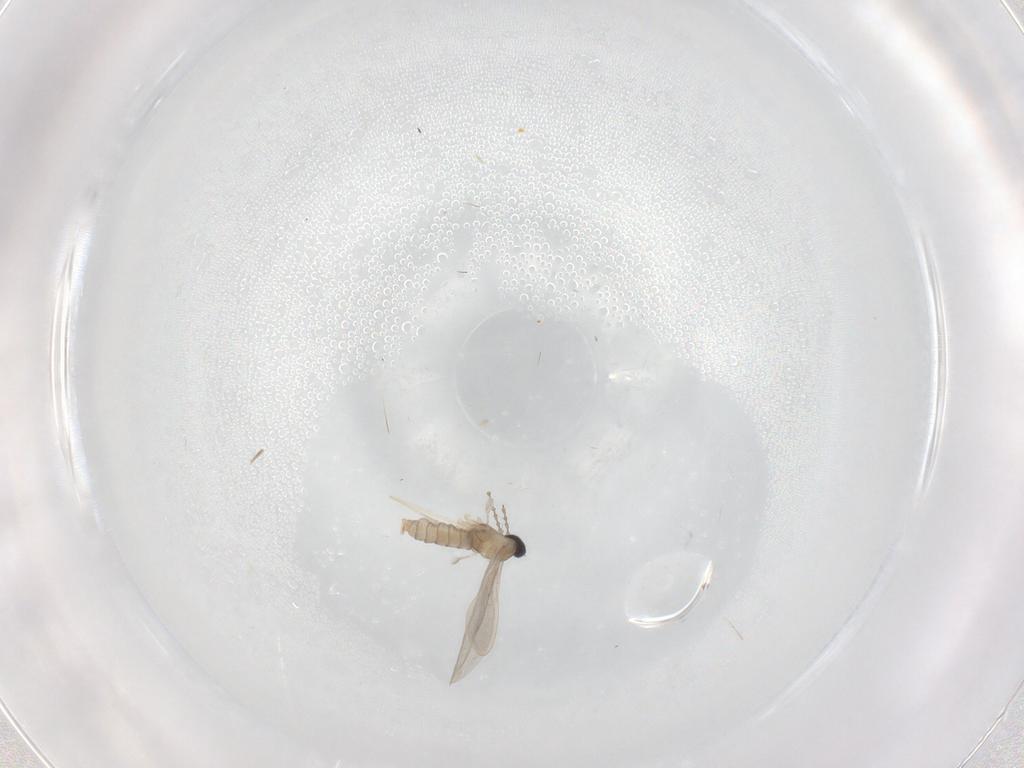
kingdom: Animalia
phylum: Arthropoda
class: Insecta
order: Diptera
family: Cecidomyiidae
